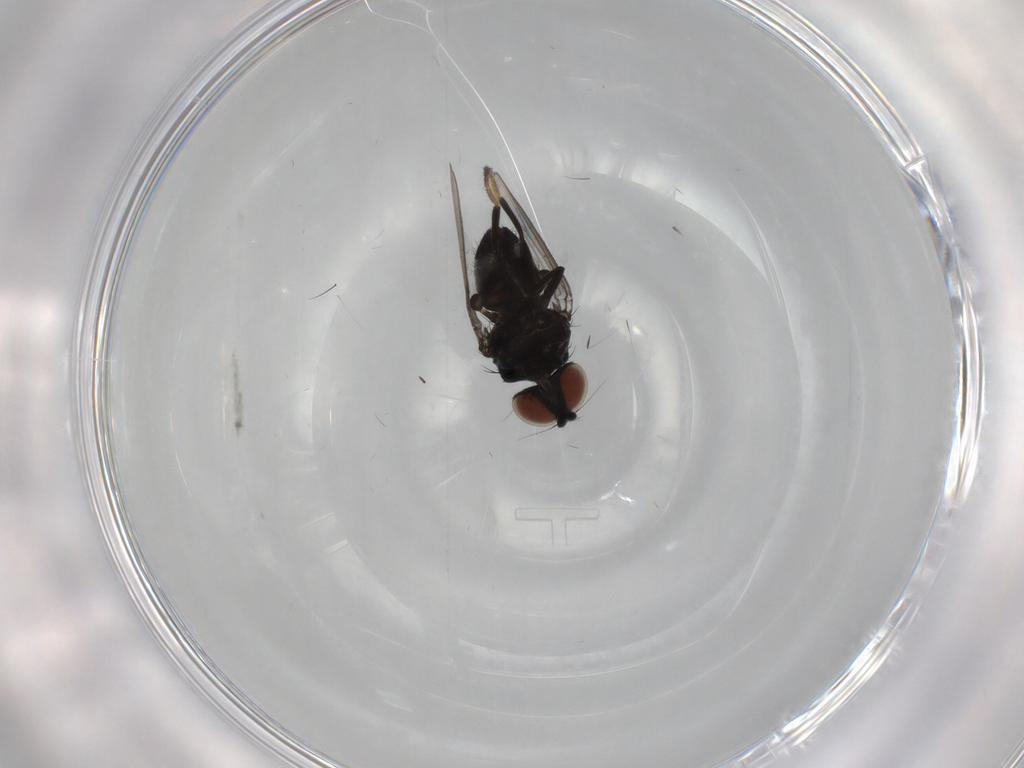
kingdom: Animalia
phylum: Arthropoda
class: Insecta
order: Diptera
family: Milichiidae
